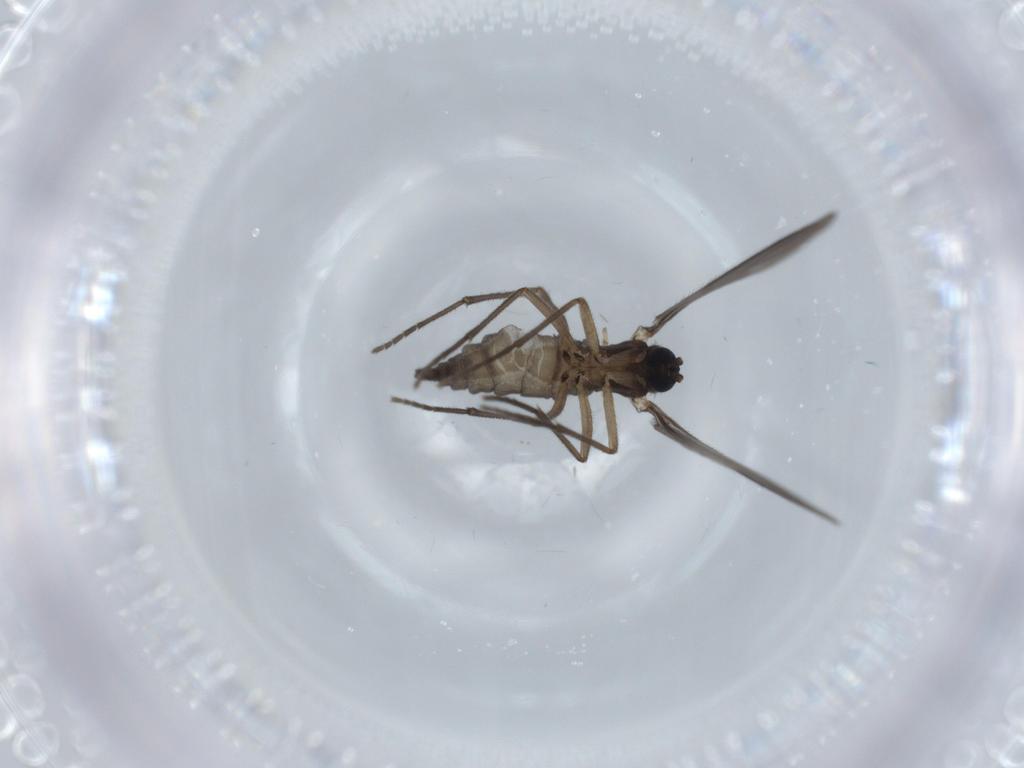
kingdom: Animalia
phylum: Arthropoda
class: Insecta
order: Diptera
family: Sciaridae
